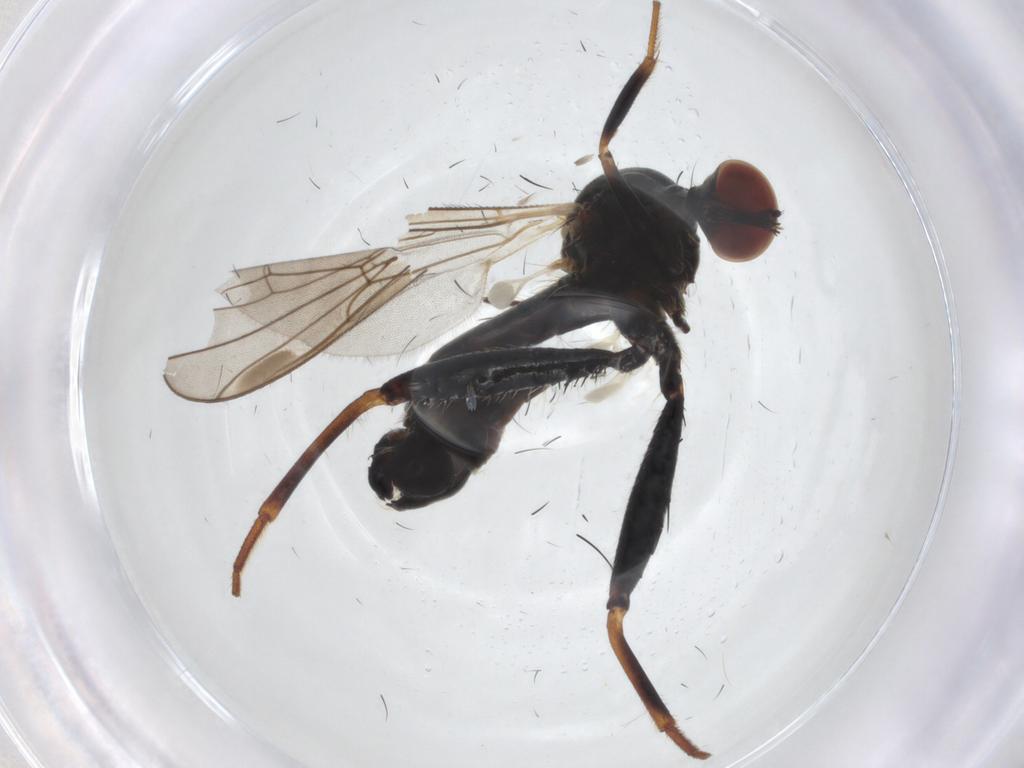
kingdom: Animalia
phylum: Arthropoda
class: Insecta
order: Diptera
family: Hybotidae
